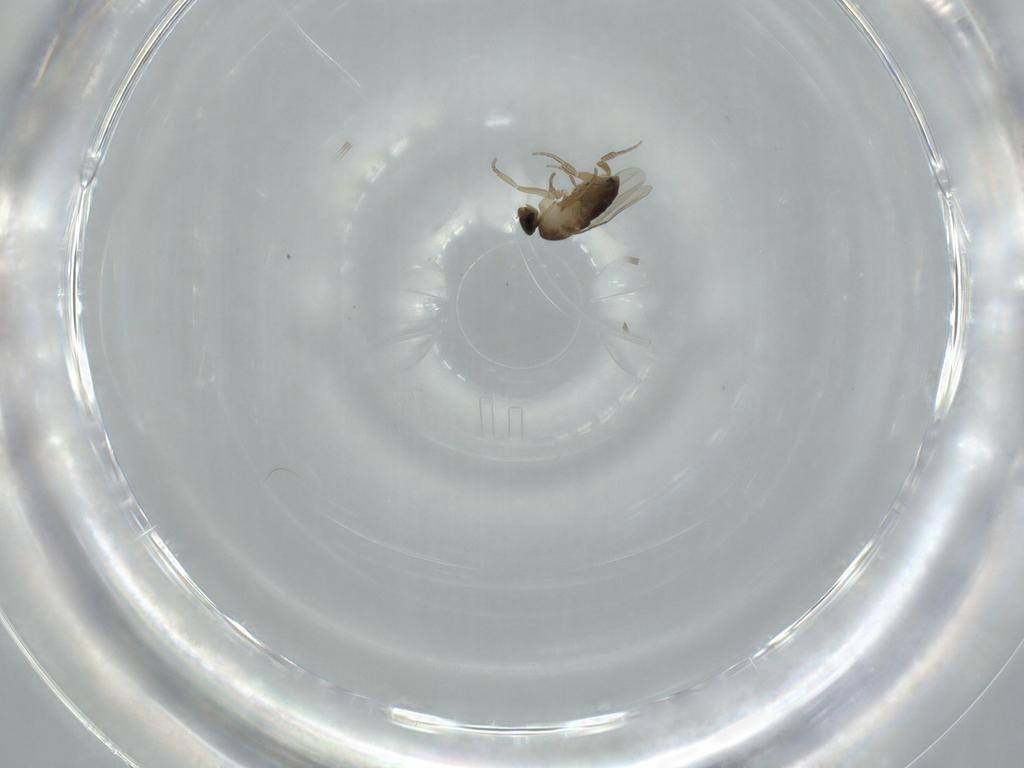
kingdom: Animalia
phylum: Arthropoda
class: Insecta
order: Diptera
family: Phoridae
